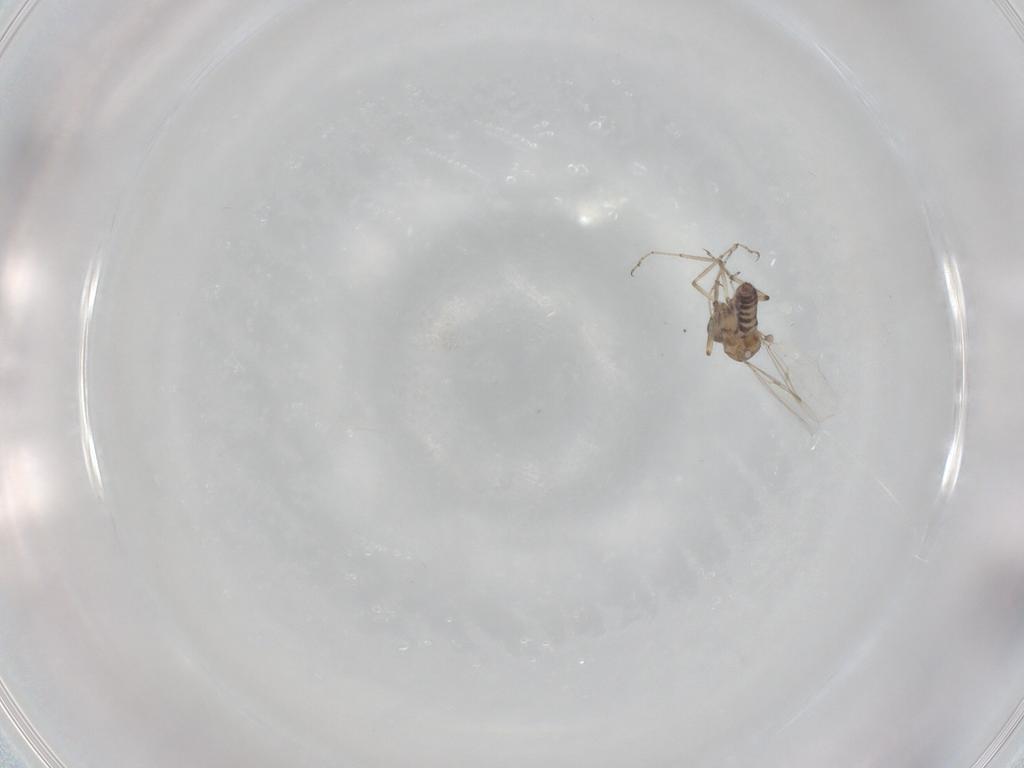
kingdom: Animalia
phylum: Arthropoda
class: Insecta
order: Diptera
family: Ceratopogonidae
